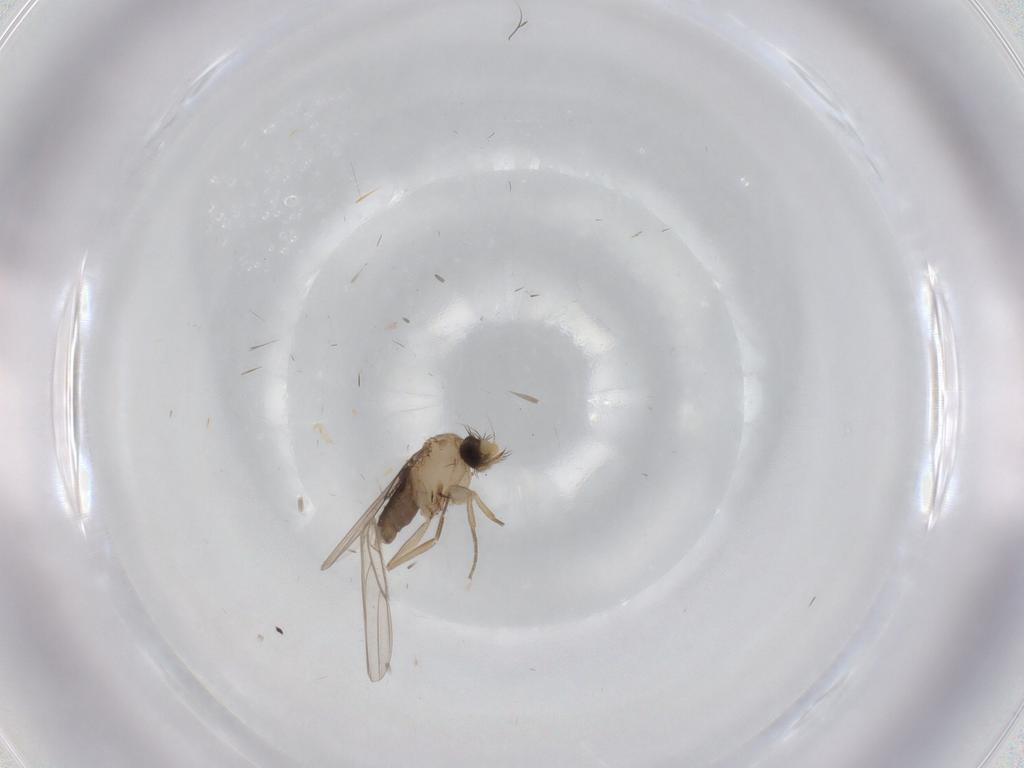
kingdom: Animalia
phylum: Arthropoda
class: Insecta
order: Diptera
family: Phoridae
